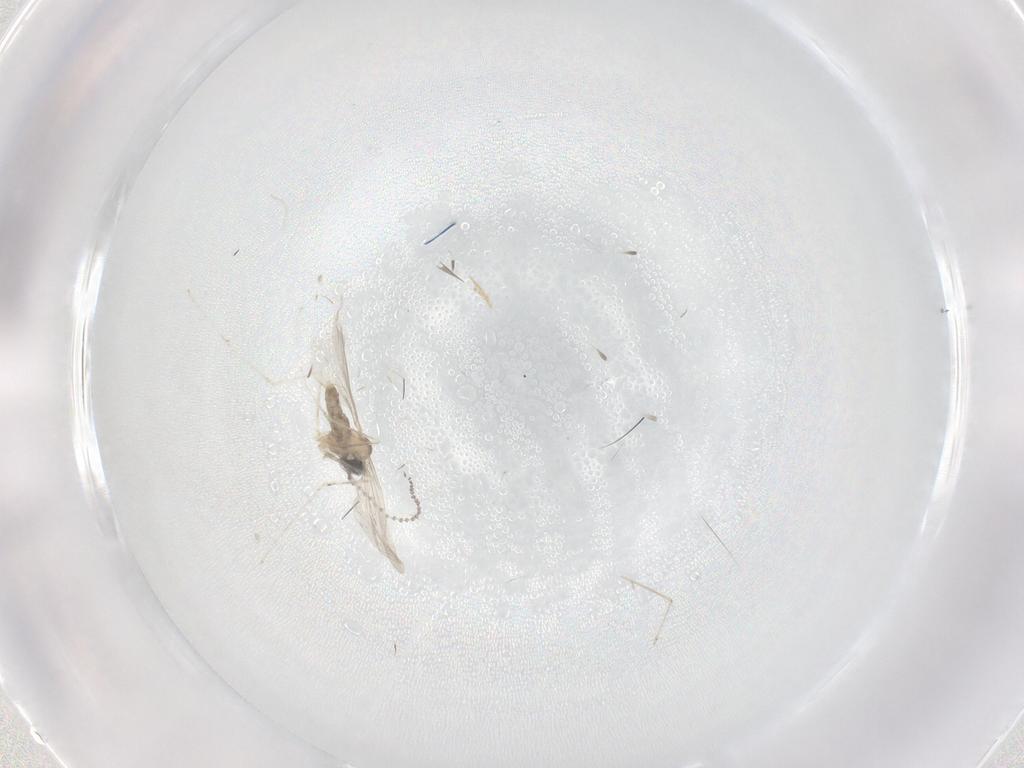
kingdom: Animalia
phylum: Arthropoda
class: Insecta
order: Diptera
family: Cecidomyiidae
